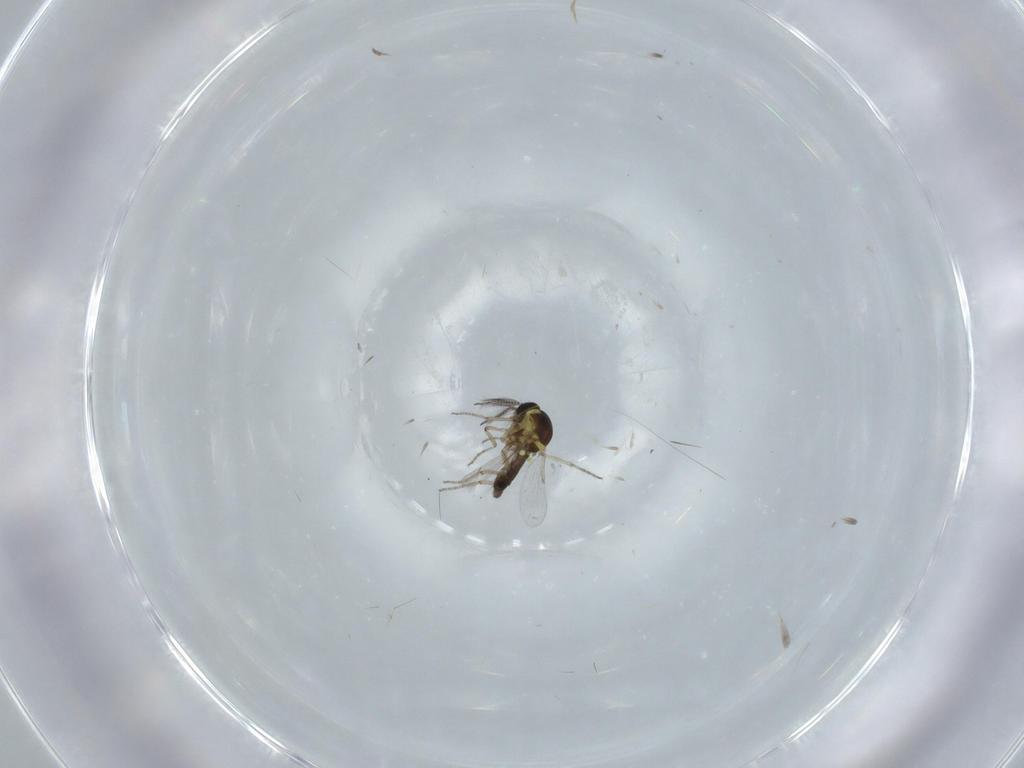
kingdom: Animalia
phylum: Arthropoda
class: Insecta
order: Diptera
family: Ceratopogonidae
